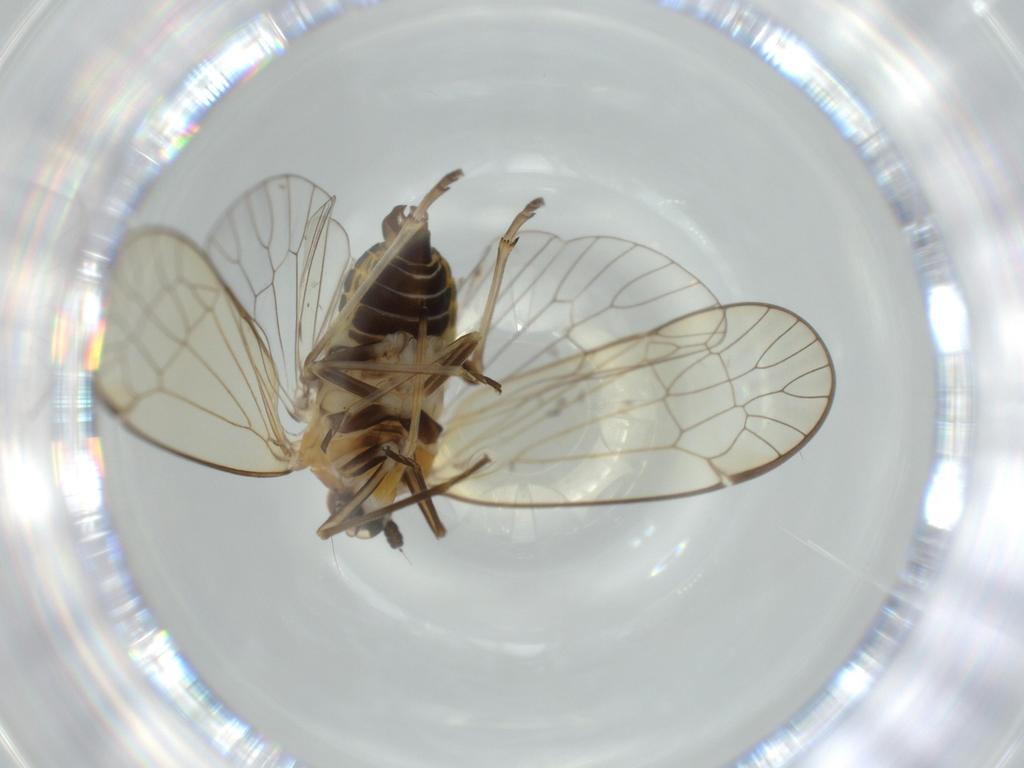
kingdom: Animalia
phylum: Arthropoda
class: Insecta
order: Hemiptera
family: Kinnaridae
